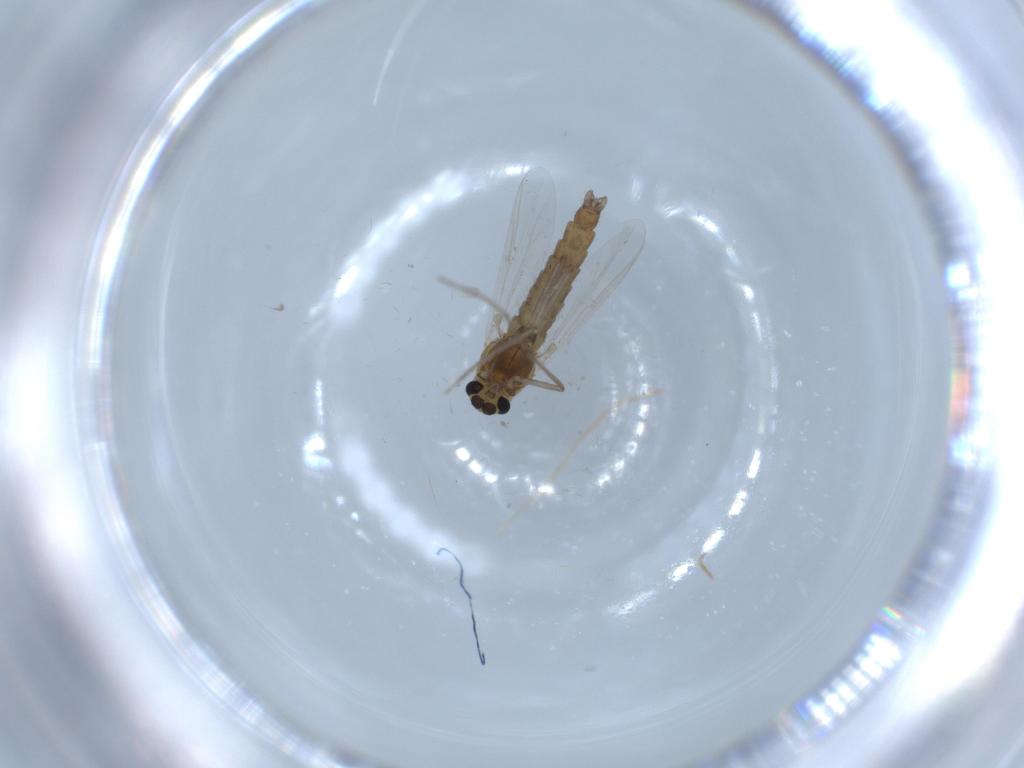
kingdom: Animalia
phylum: Arthropoda
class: Insecta
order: Diptera
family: Chironomidae
